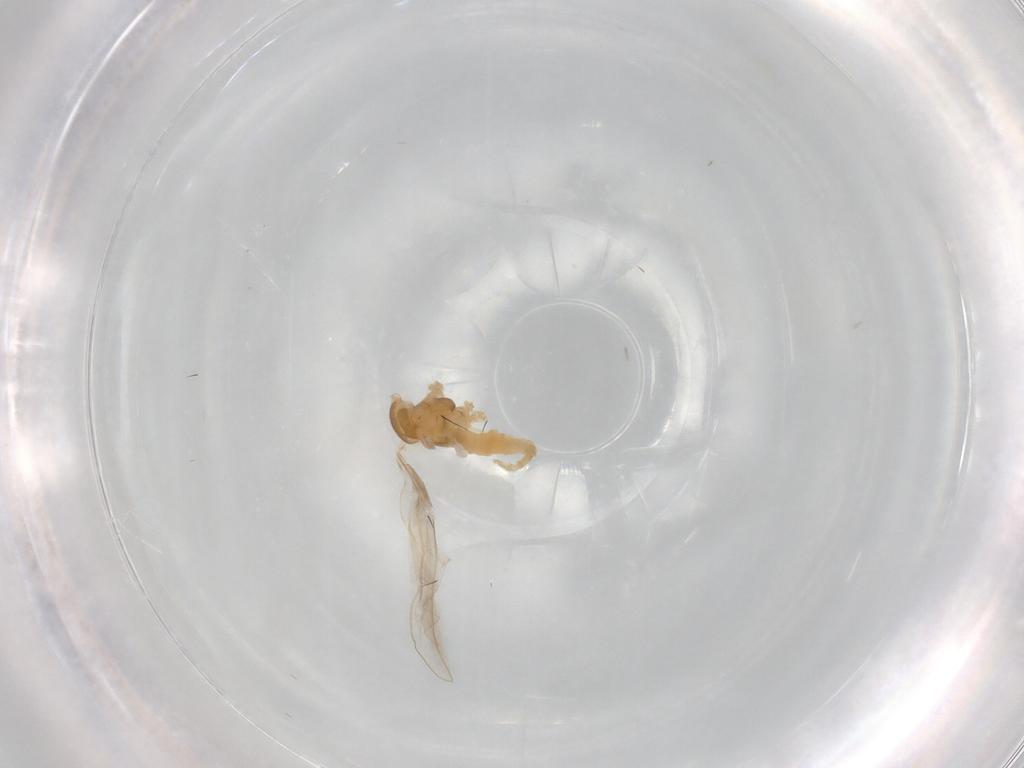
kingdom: Animalia
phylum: Arthropoda
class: Insecta
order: Diptera
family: Cecidomyiidae
